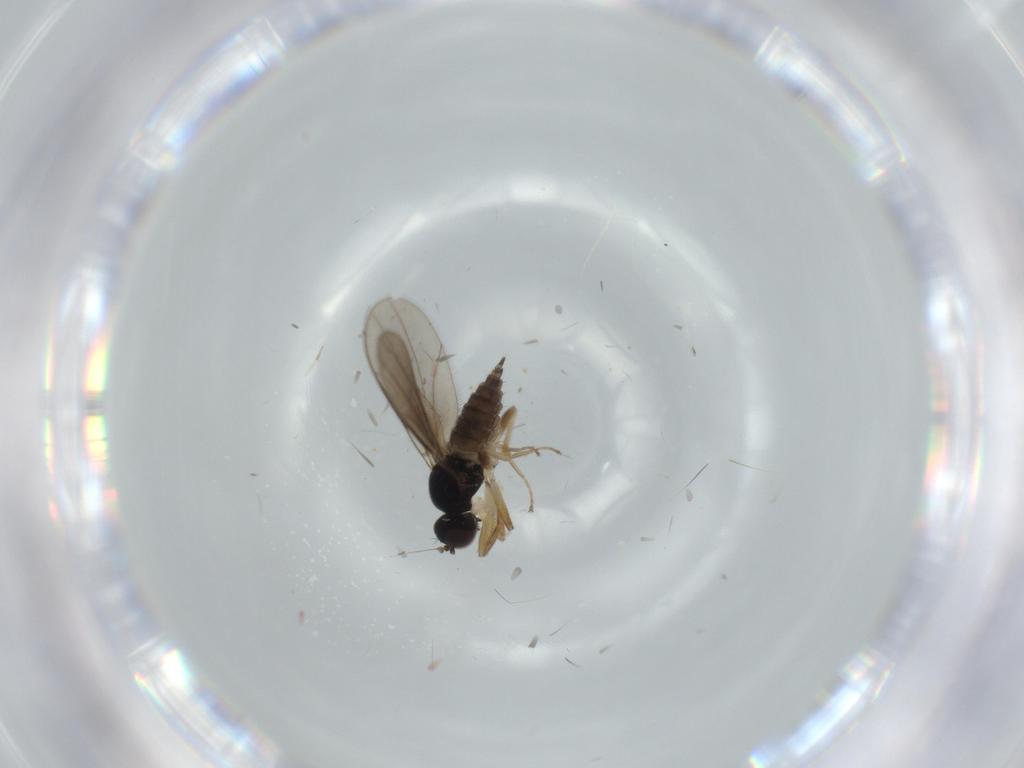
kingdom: Animalia
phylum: Arthropoda
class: Insecta
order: Diptera
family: Hybotidae
